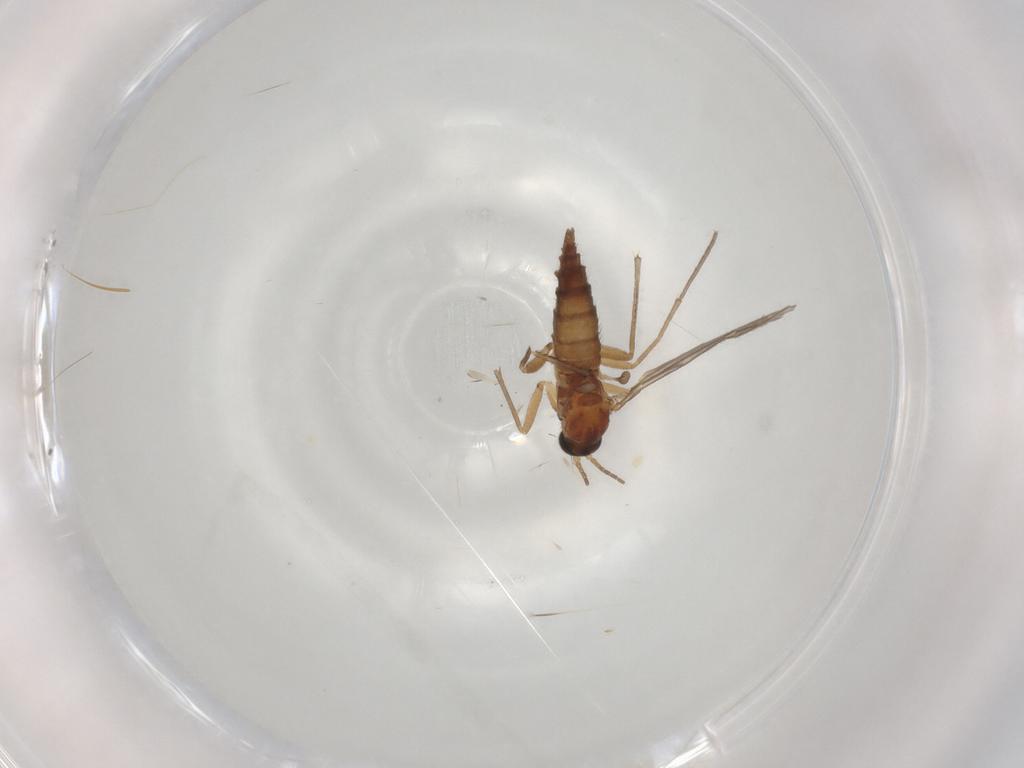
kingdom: Animalia
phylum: Arthropoda
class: Insecta
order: Diptera
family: Sciaridae
